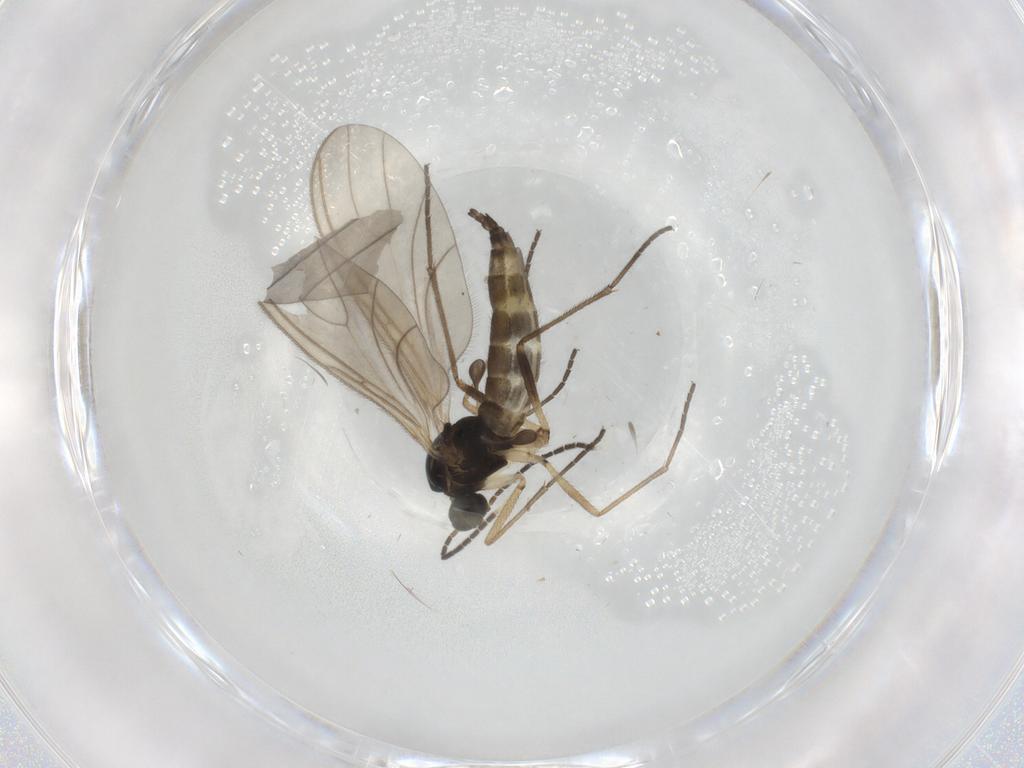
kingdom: Animalia
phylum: Arthropoda
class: Insecta
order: Diptera
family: Sciaridae
